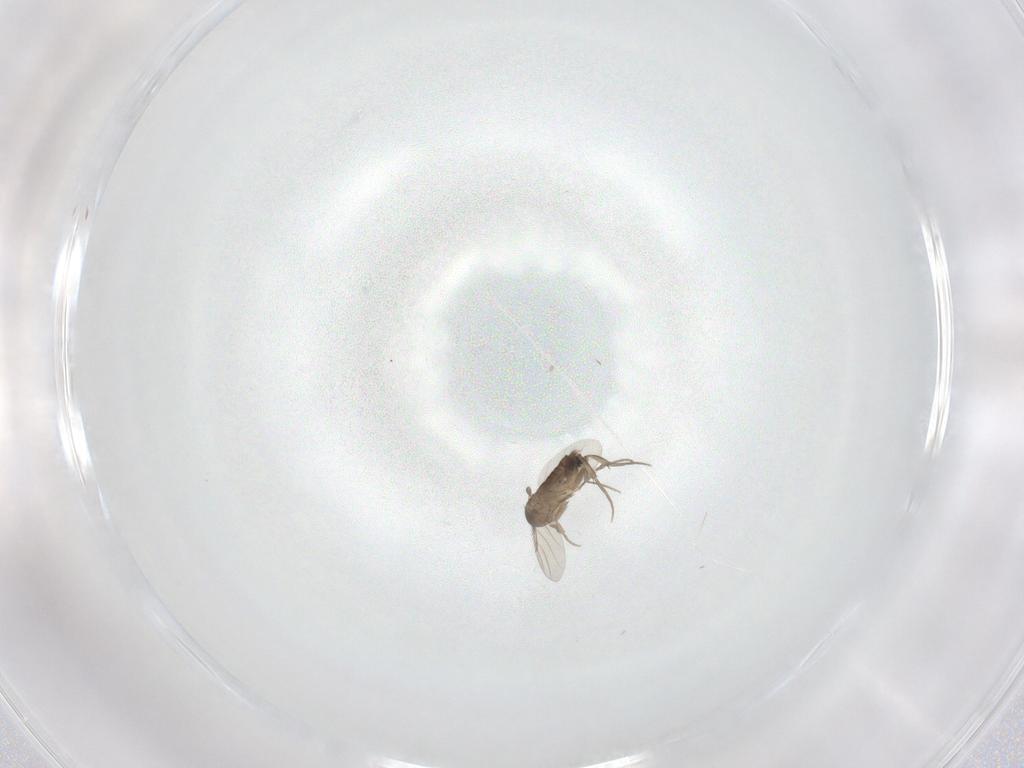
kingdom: Animalia
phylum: Arthropoda
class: Insecta
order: Diptera
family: Phoridae
